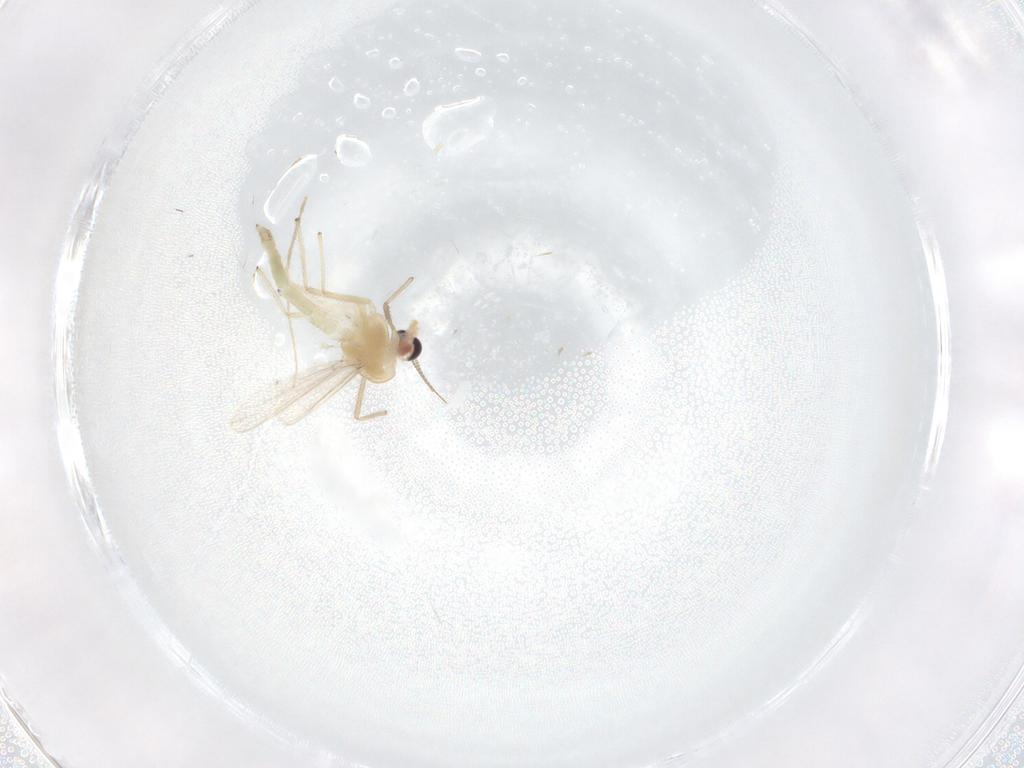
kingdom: Animalia
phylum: Arthropoda
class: Insecta
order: Diptera
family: Chironomidae
